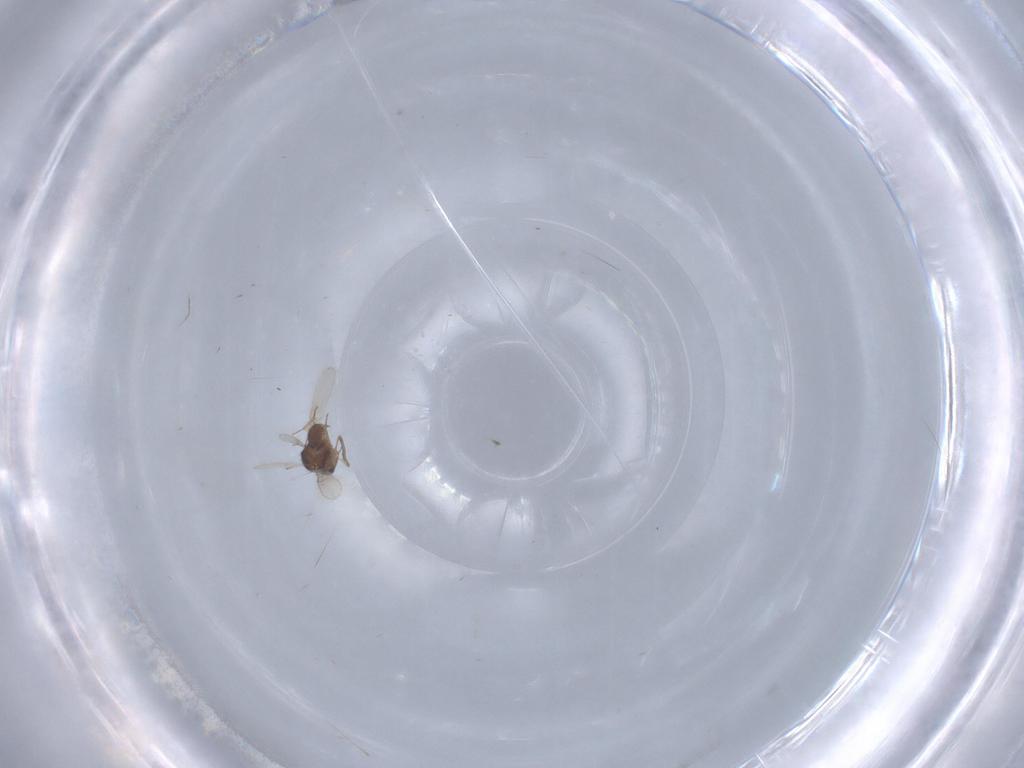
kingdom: Animalia
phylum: Arthropoda
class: Insecta
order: Hymenoptera
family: Scelionidae
